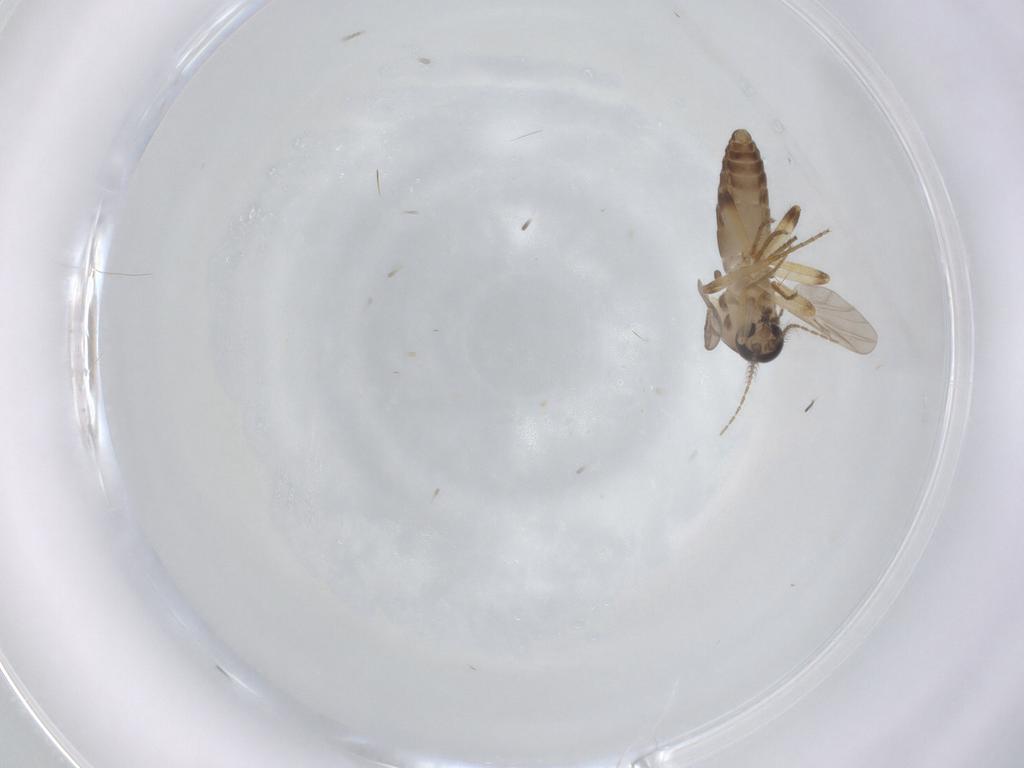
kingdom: Animalia
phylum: Arthropoda
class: Insecta
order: Diptera
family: Ceratopogonidae
